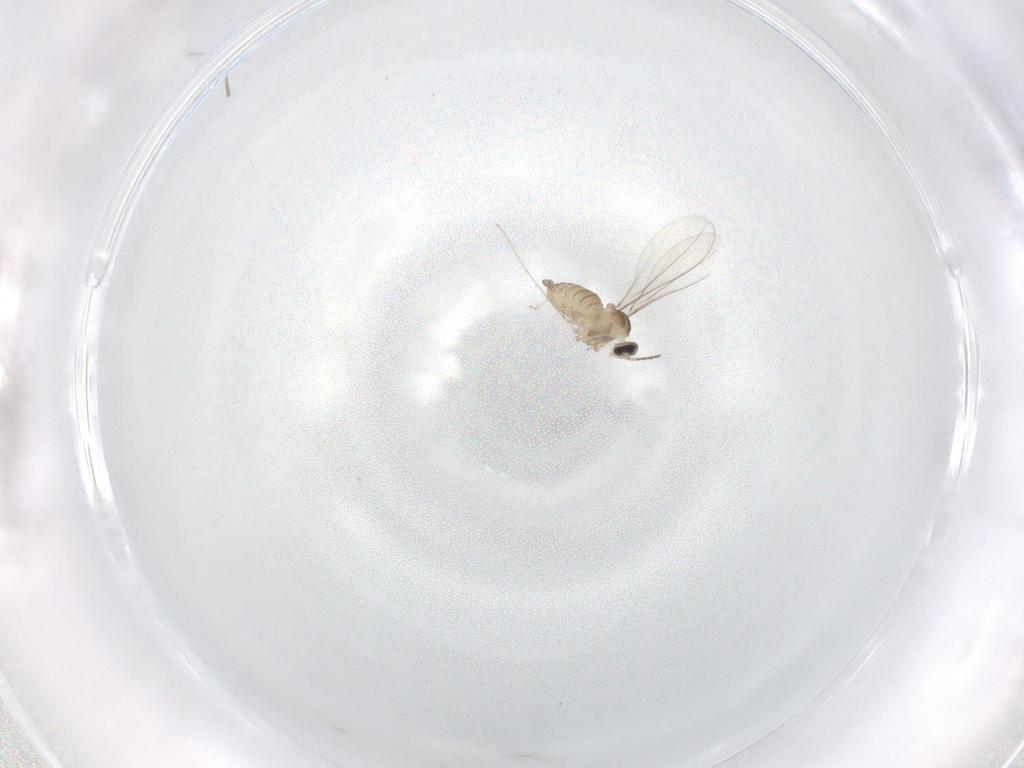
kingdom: Animalia
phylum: Arthropoda
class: Insecta
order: Diptera
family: Cecidomyiidae
